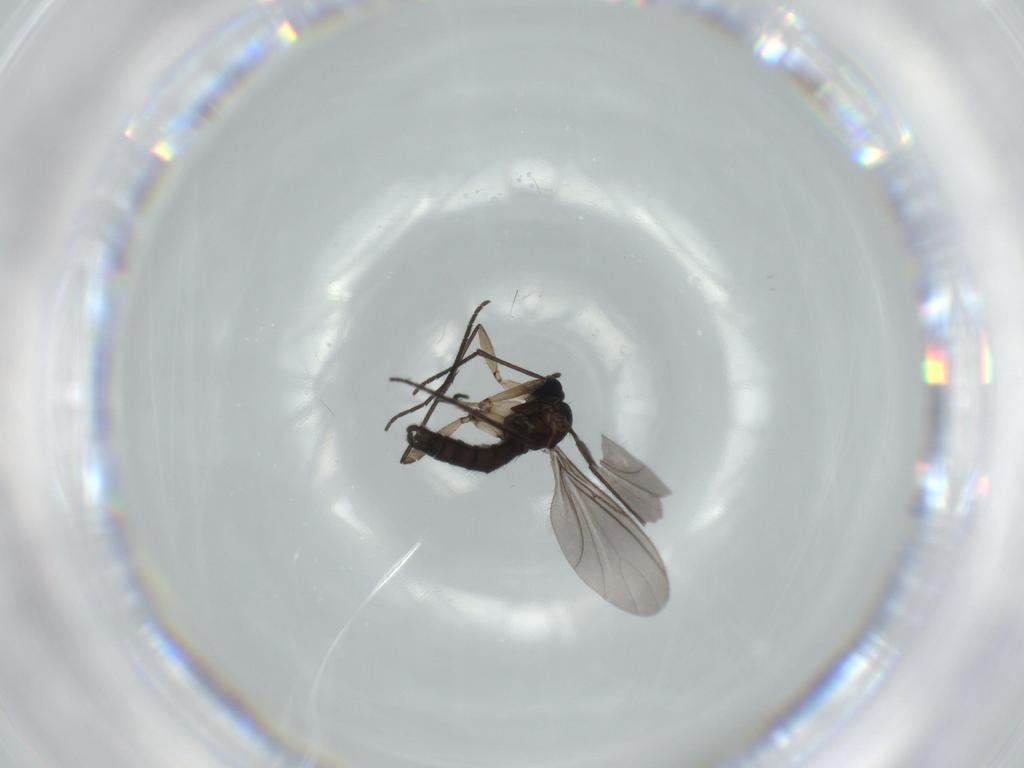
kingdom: Animalia
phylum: Arthropoda
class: Insecta
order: Diptera
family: Sciaridae
